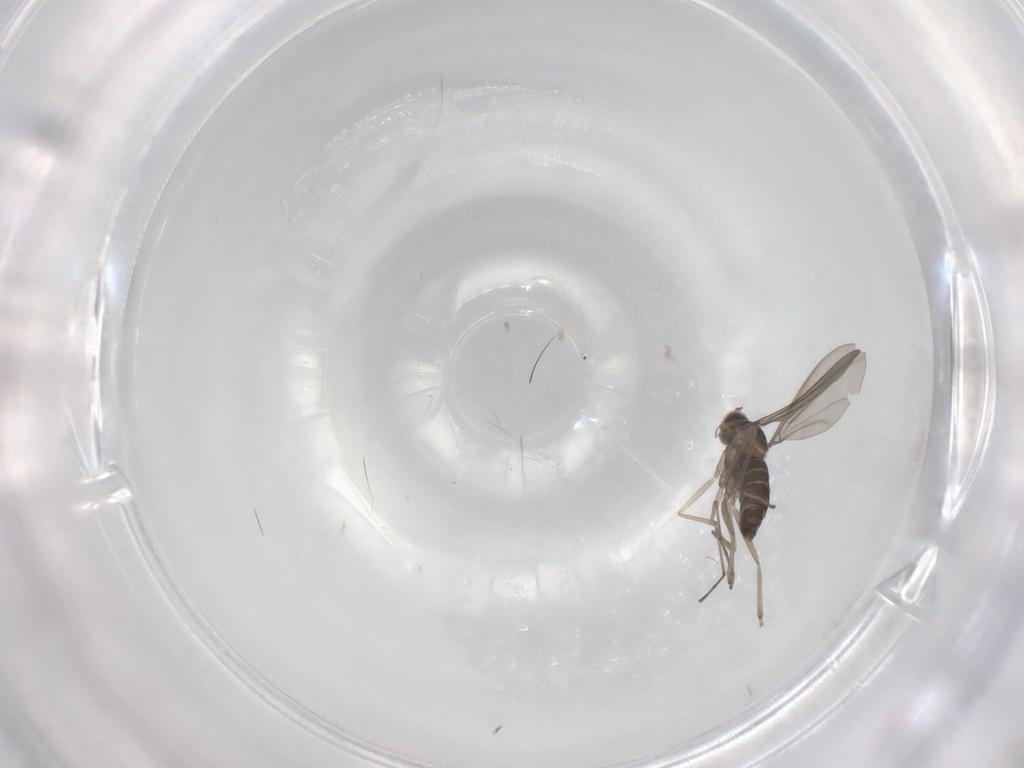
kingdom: Animalia
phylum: Arthropoda
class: Insecta
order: Diptera
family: Cecidomyiidae
